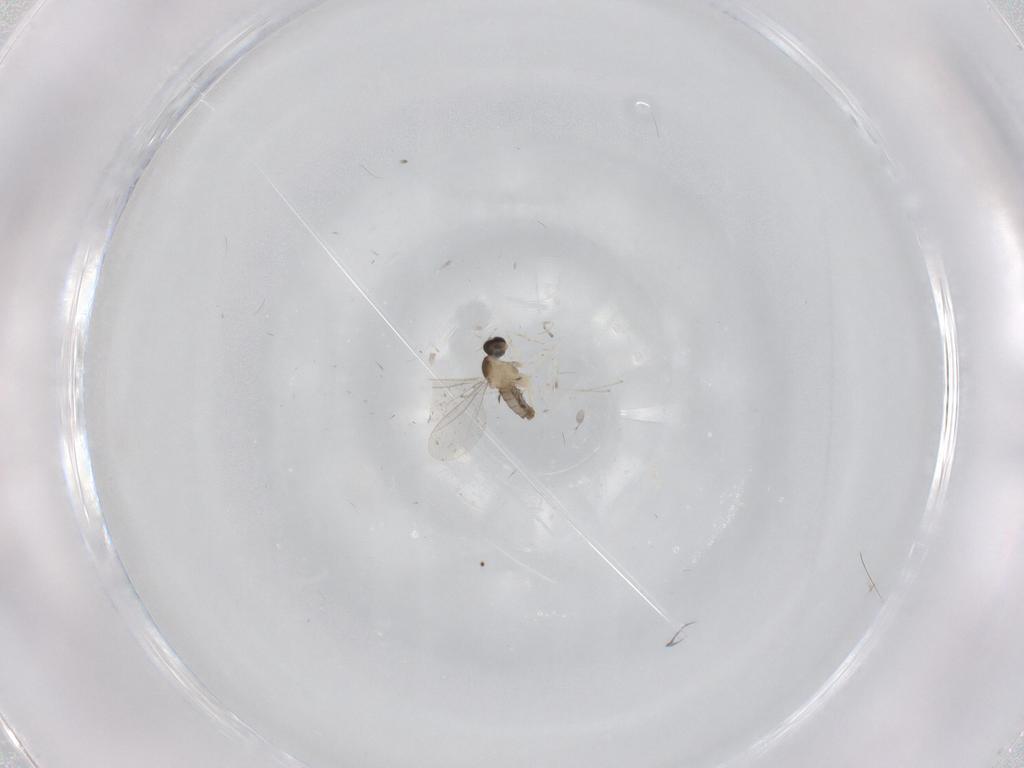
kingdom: Animalia
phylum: Arthropoda
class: Insecta
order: Diptera
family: Cecidomyiidae
